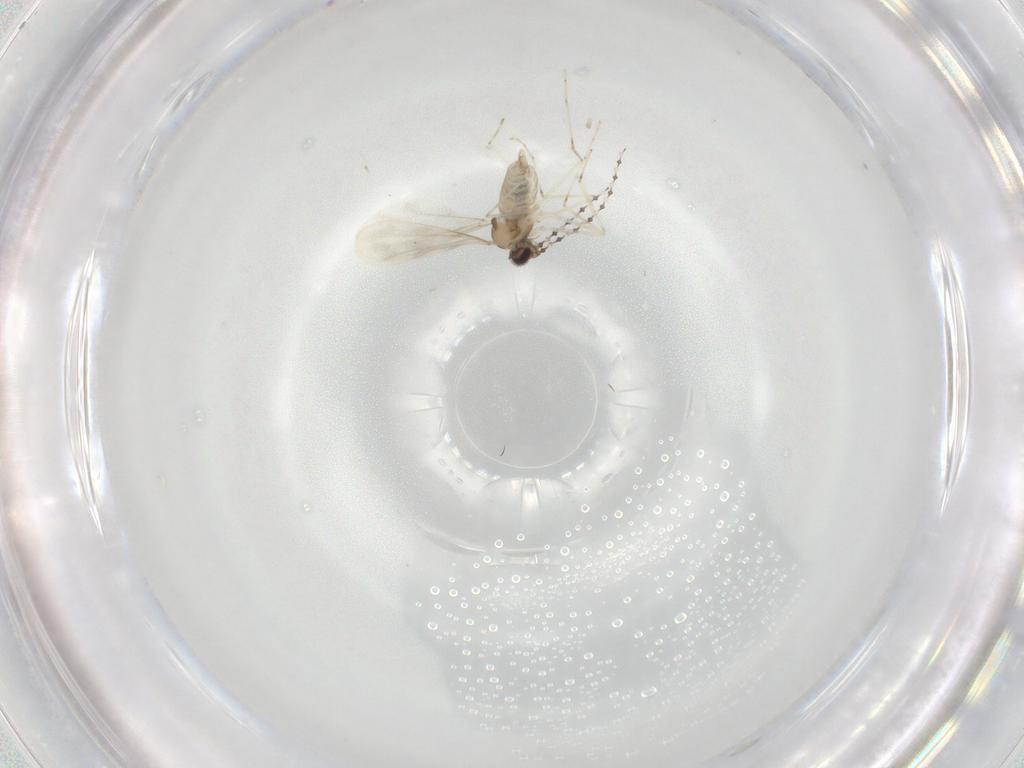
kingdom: Animalia
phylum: Arthropoda
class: Insecta
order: Diptera
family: Cecidomyiidae
